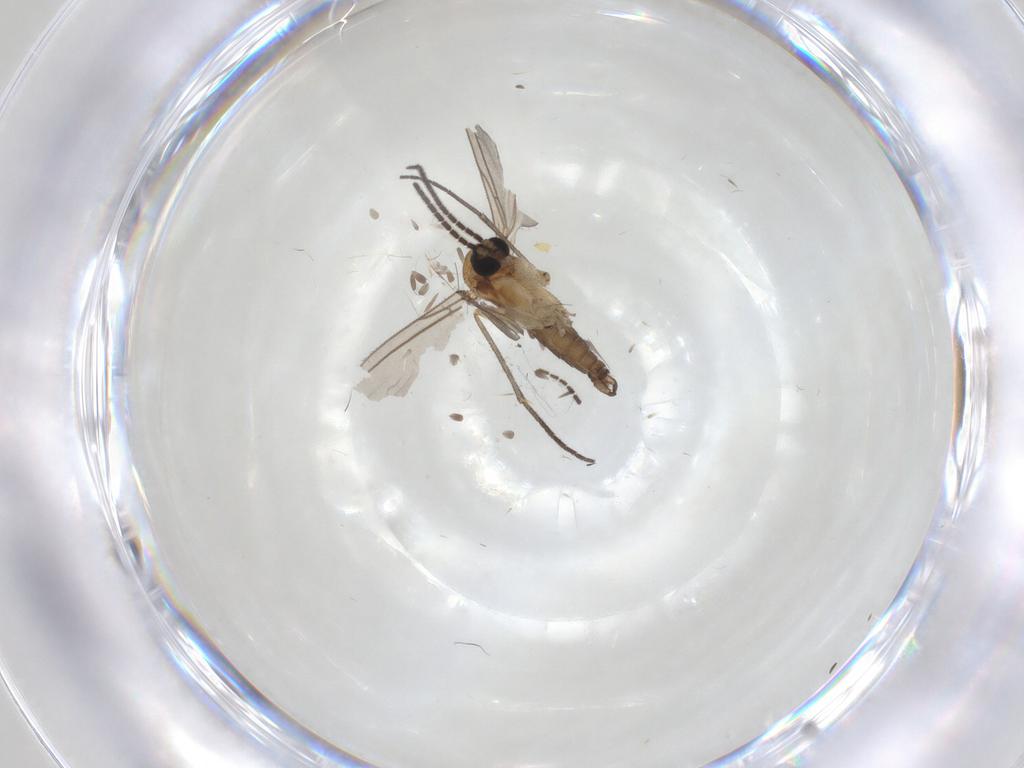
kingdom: Animalia
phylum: Arthropoda
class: Insecta
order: Diptera
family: Sciaridae
